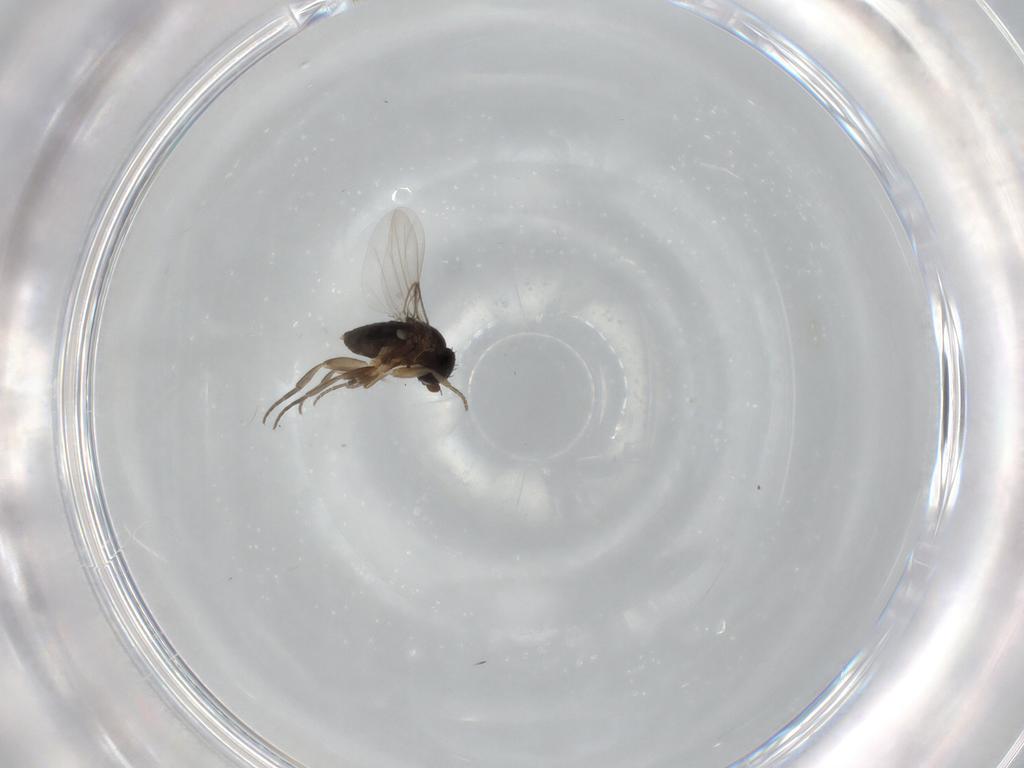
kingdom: Animalia
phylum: Arthropoda
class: Insecta
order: Diptera
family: Phoridae
